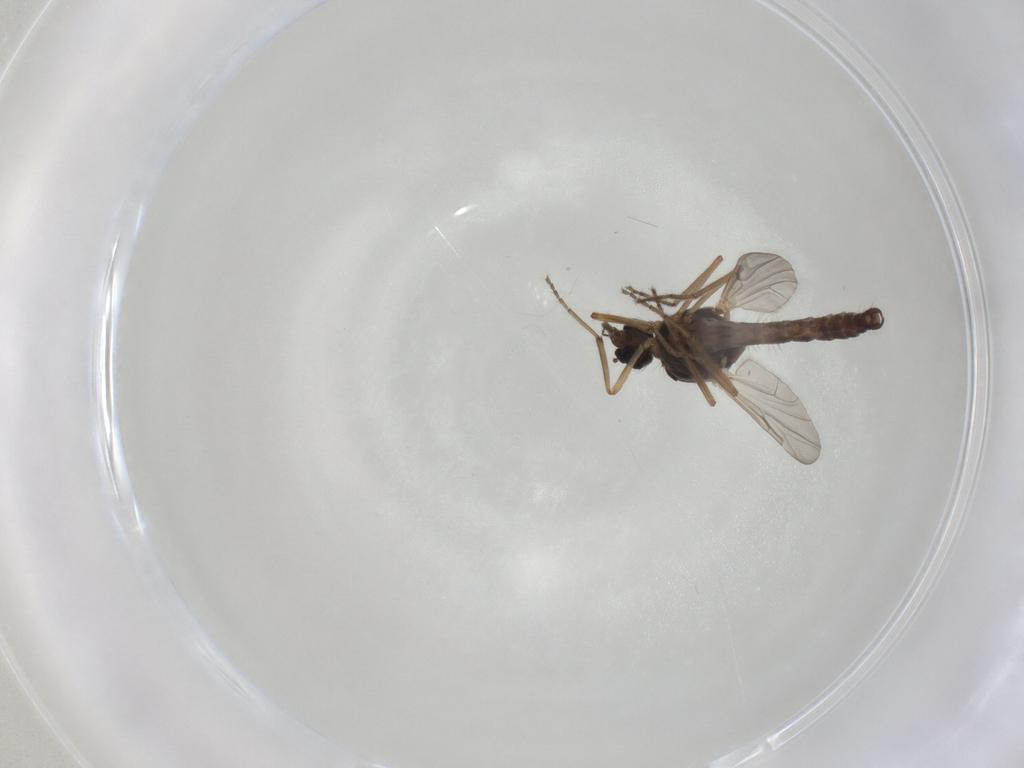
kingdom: Animalia
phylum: Arthropoda
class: Insecta
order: Diptera
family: Ceratopogonidae
